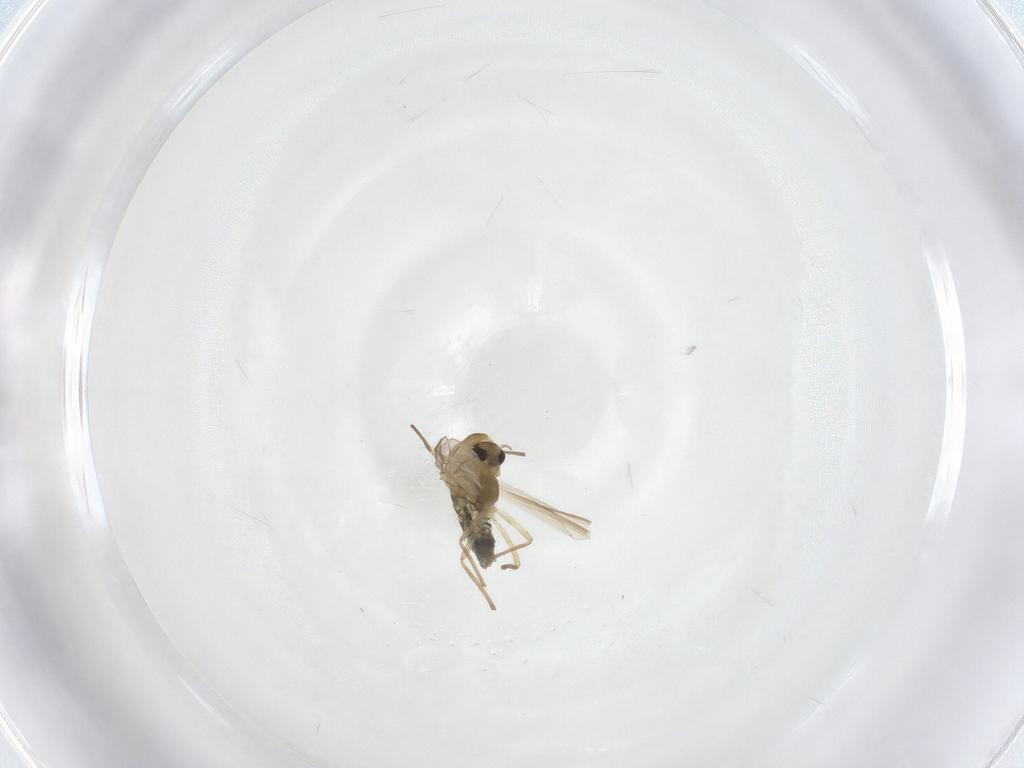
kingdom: Animalia
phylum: Arthropoda
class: Insecta
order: Diptera
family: Chironomidae
